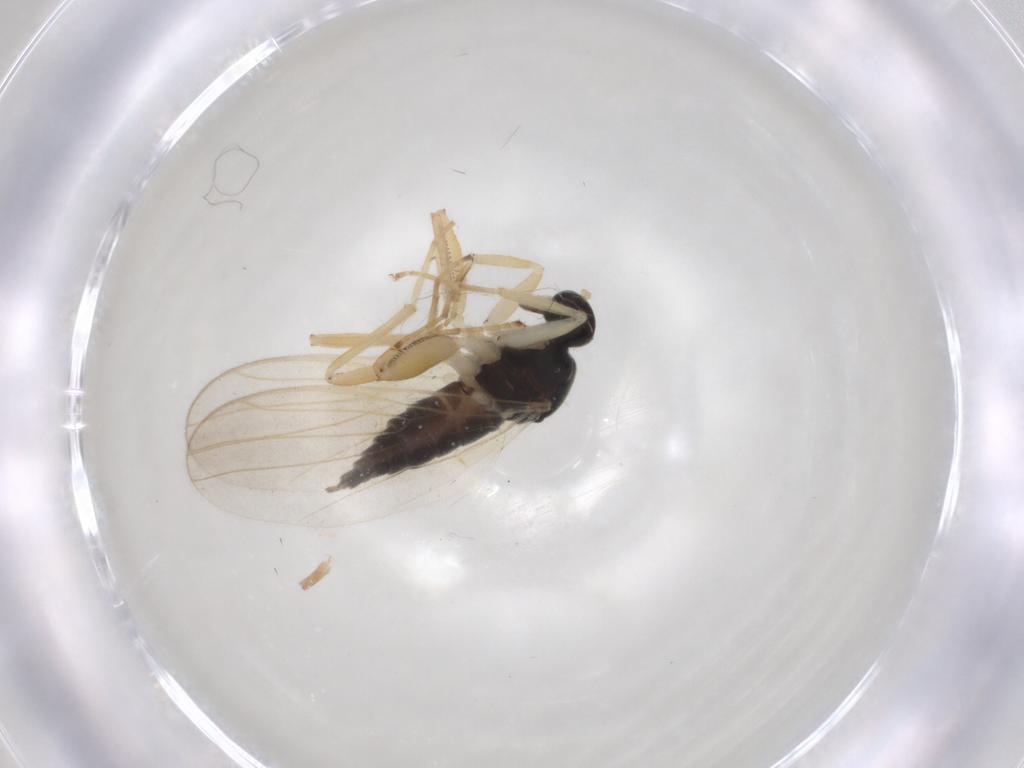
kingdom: Animalia
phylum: Arthropoda
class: Insecta
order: Diptera
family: Hybotidae
